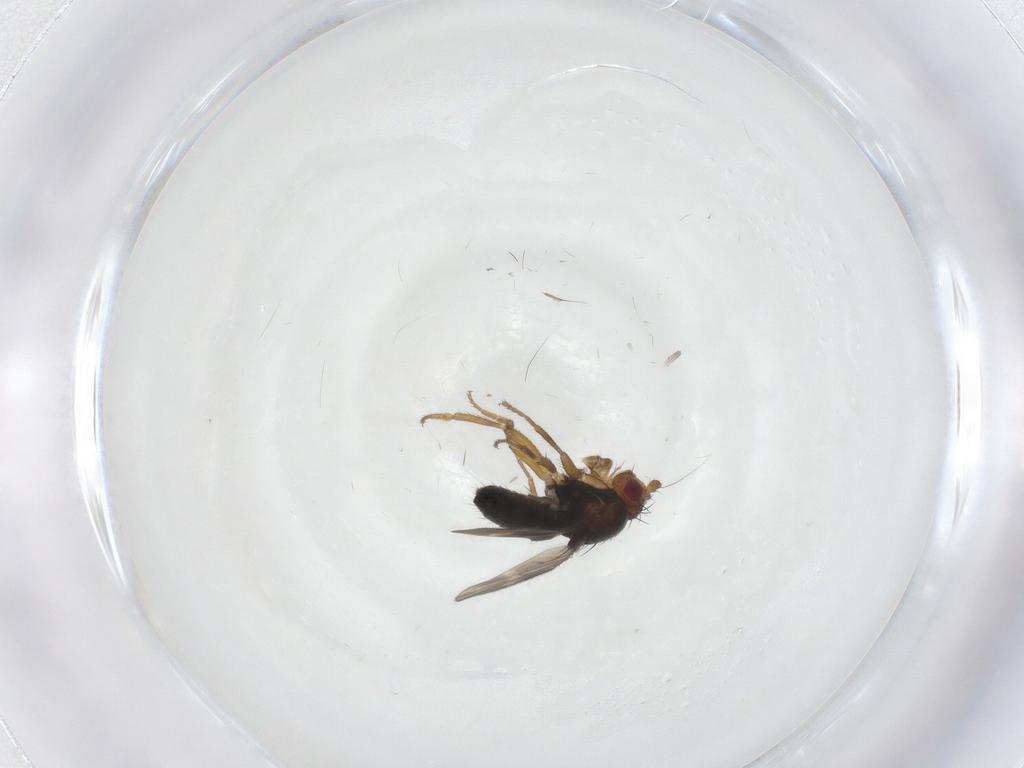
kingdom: Animalia
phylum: Arthropoda
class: Insecta
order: Diptera
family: Sphaeroceridae
